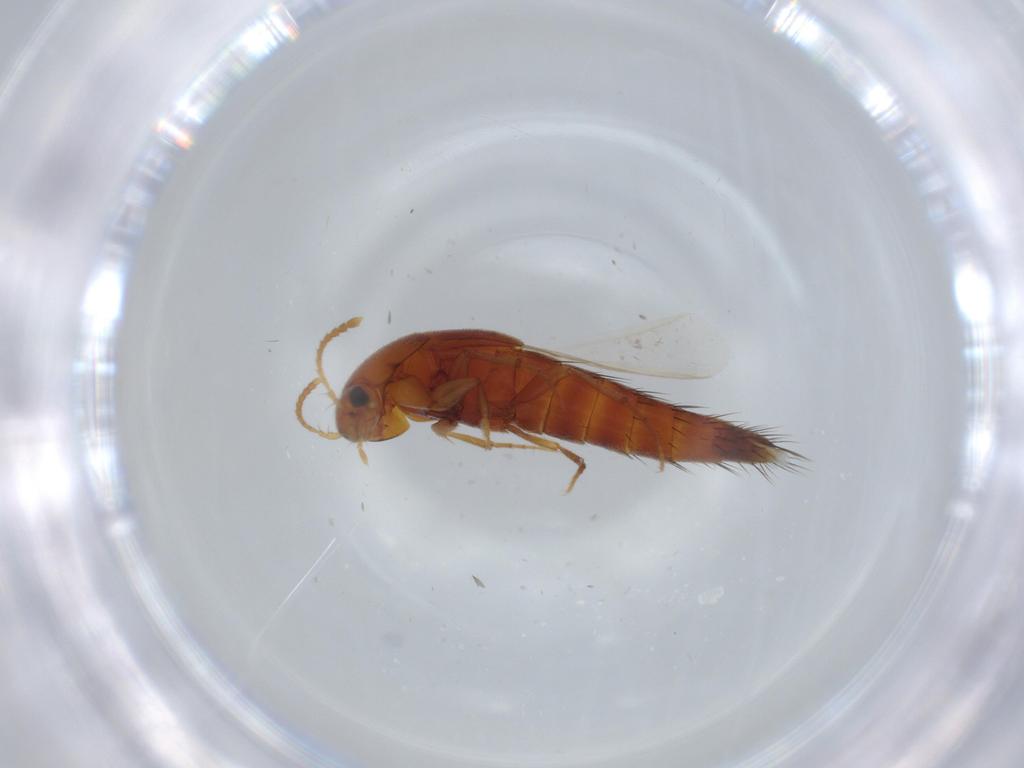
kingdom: Animalia
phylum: Arthropoda
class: Insecta
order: Coleoptera
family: Staphylinidae
